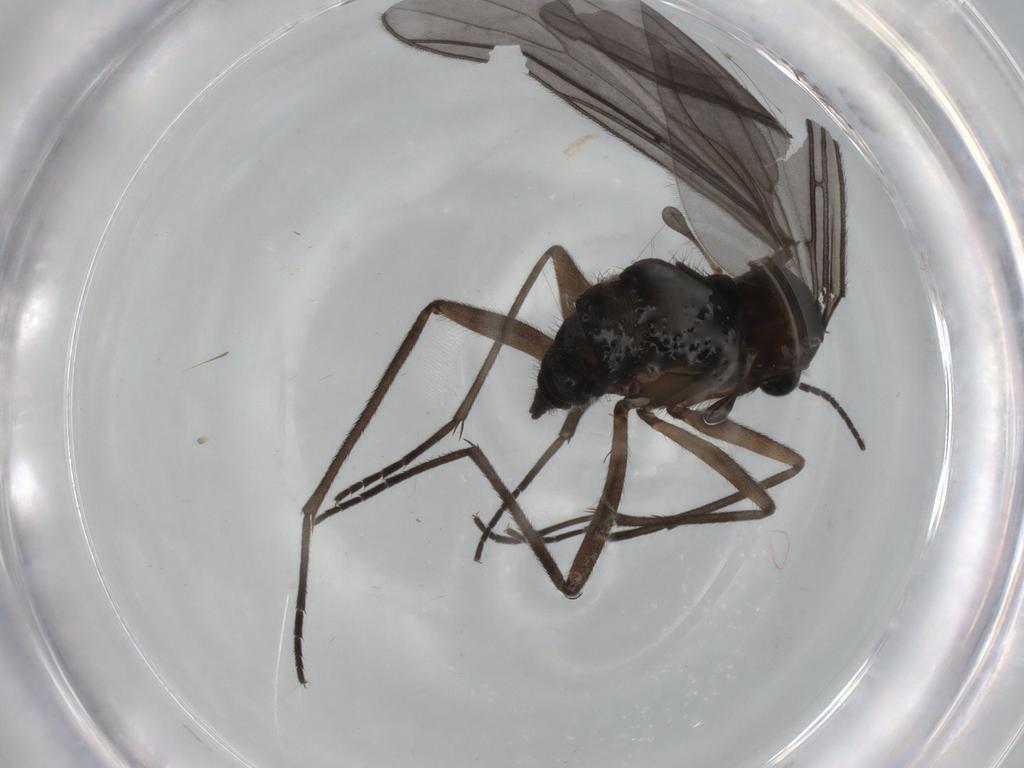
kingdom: Animalia
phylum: Arthropoda
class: Insecta
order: Diptera
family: Sciaridae
